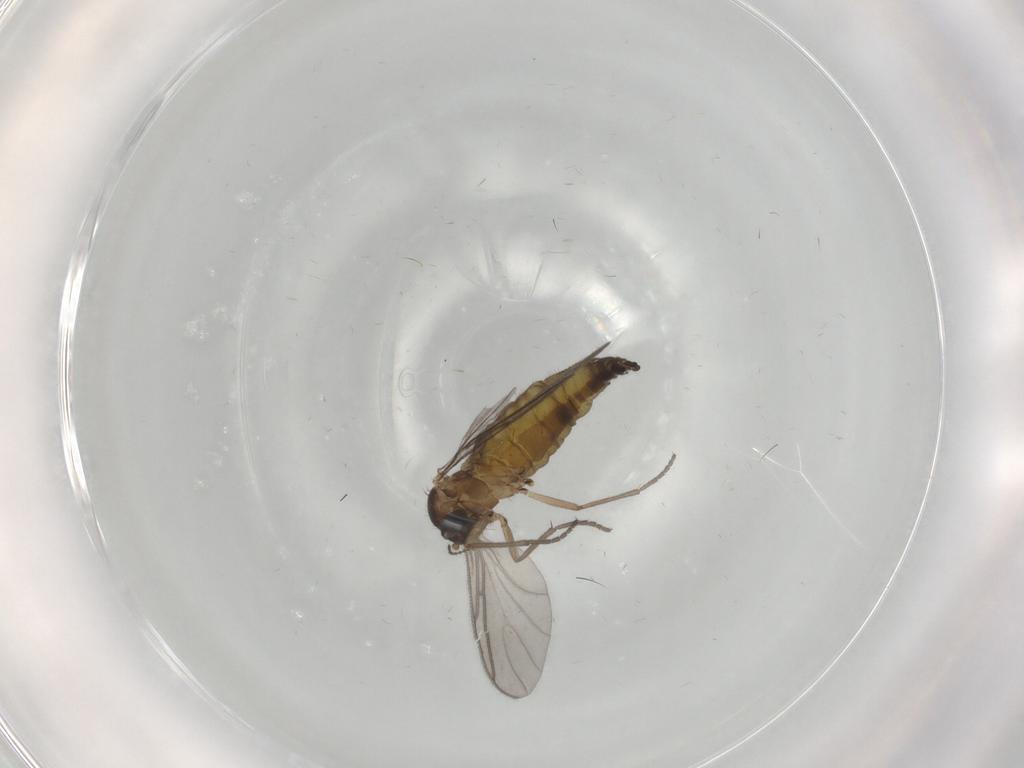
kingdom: Animalia
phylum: Arthropoda
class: Insecta
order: Diptera
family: Sciaridae
